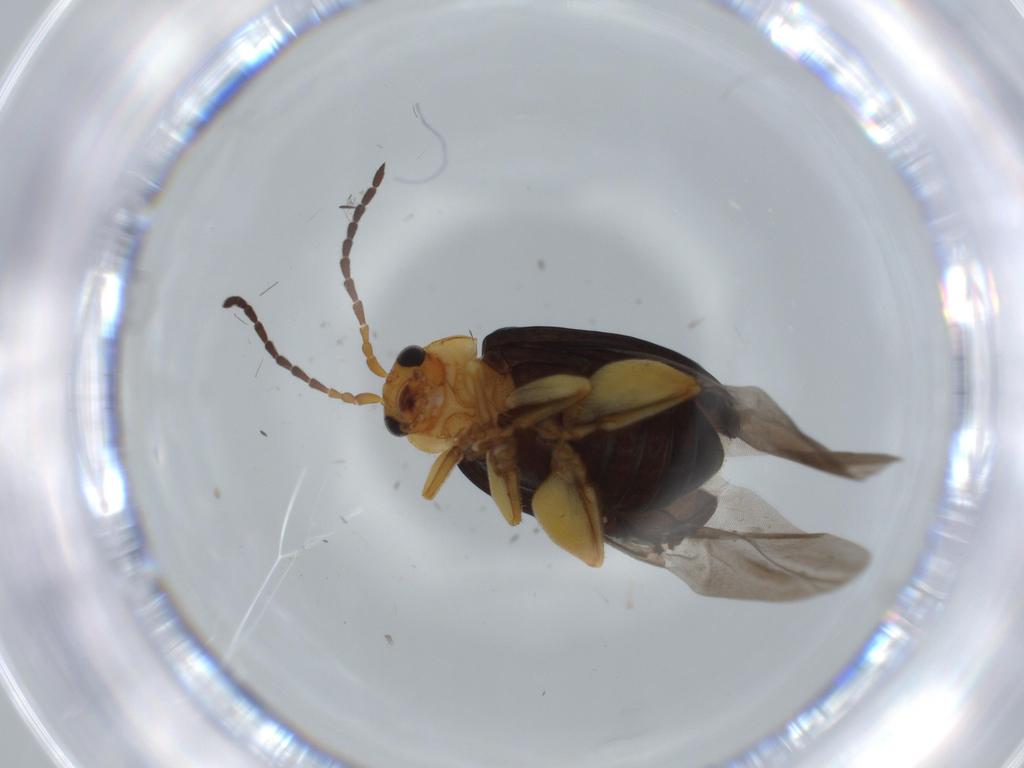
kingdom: Animalia
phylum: Arthropoda
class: Insecta
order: Coleoptera
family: Chrysomelidae
